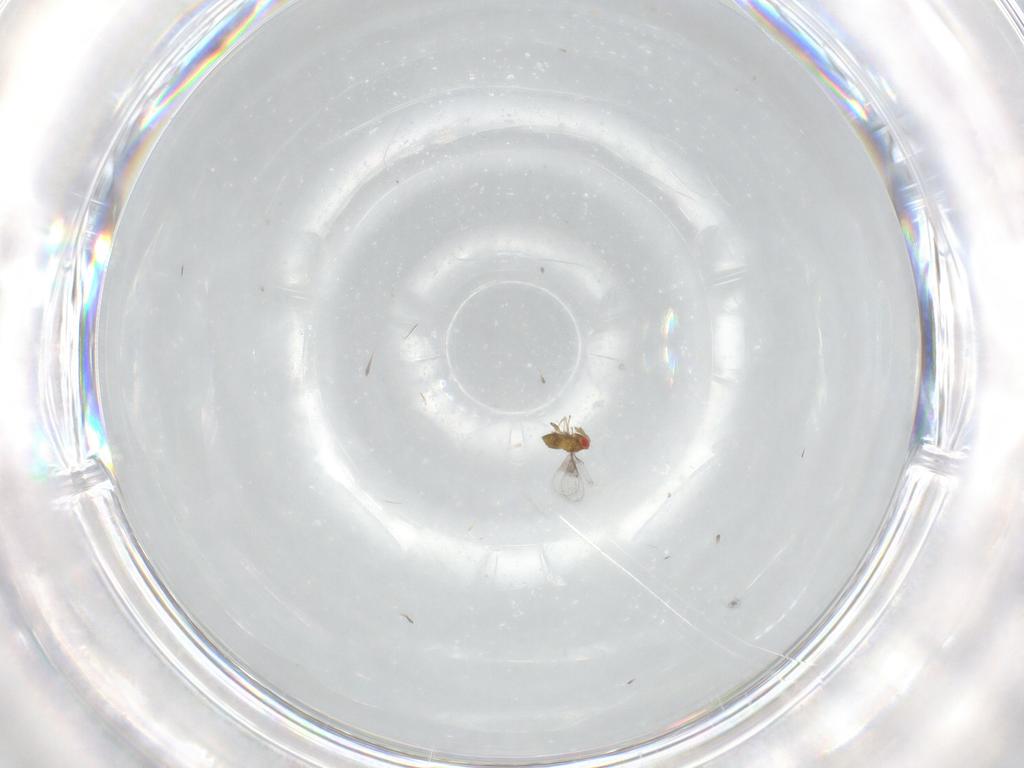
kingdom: Animalia
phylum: Arthropoda
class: Insecta
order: Hymenoptera
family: Trichogrammatidae
